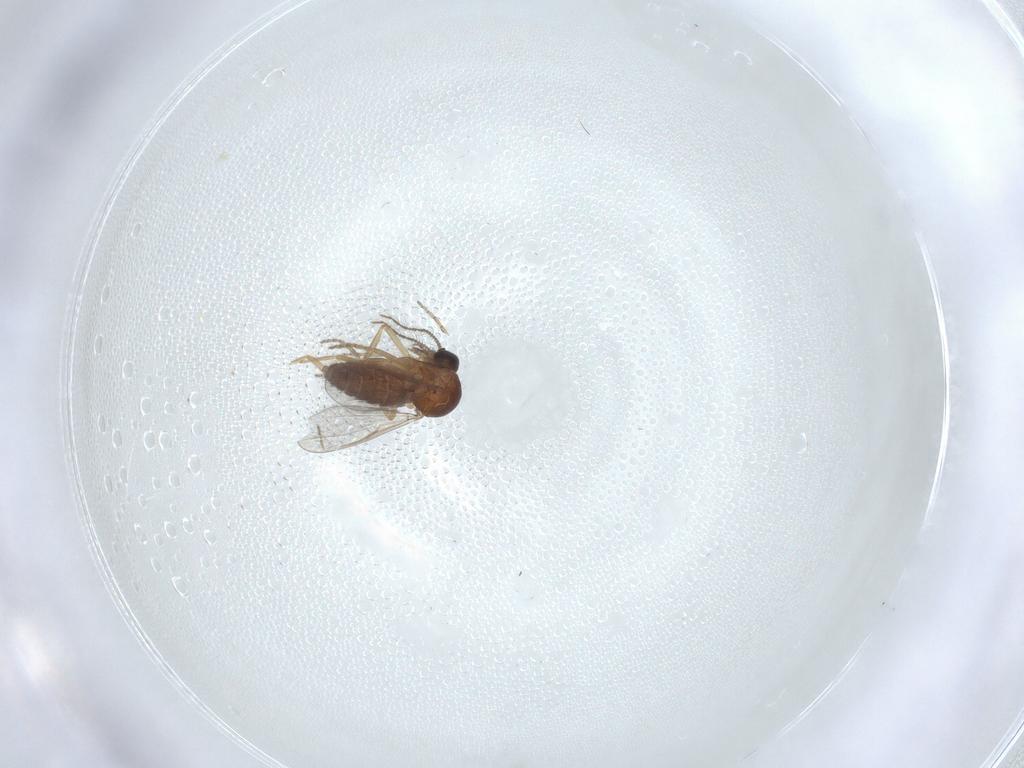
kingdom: Animalia
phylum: Arthropoda
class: Insecta
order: Diptera
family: Ceratopogonidae
